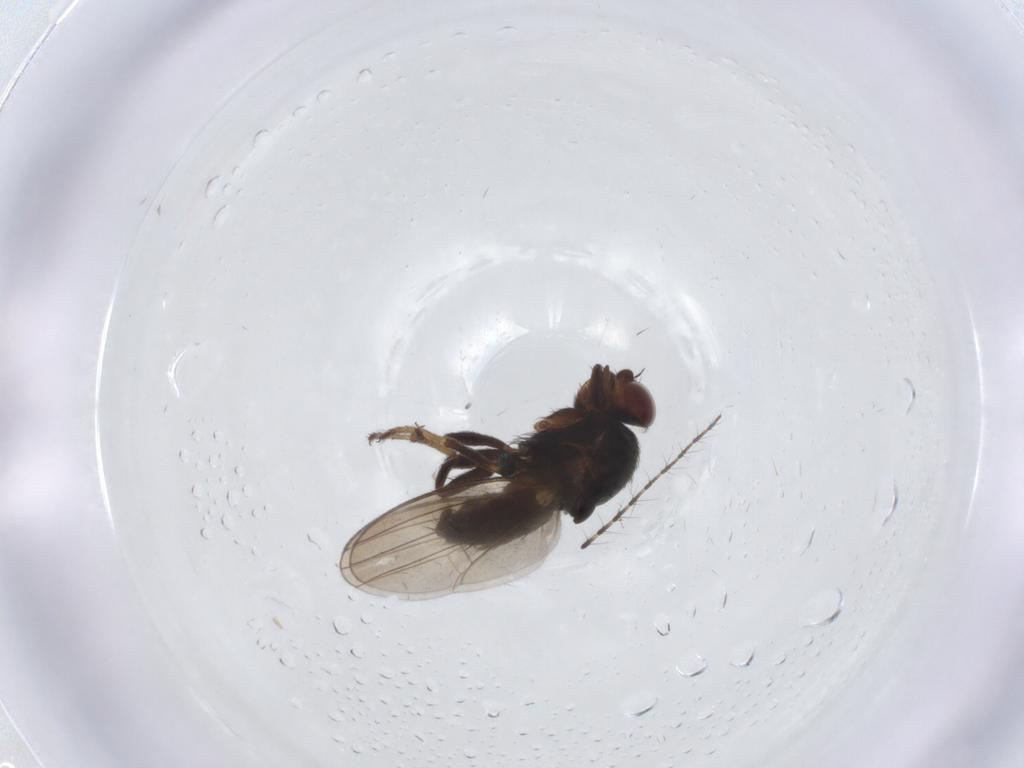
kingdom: Animalia
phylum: Arthropoda
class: Insecta
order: Diptera
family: Milichiidae
